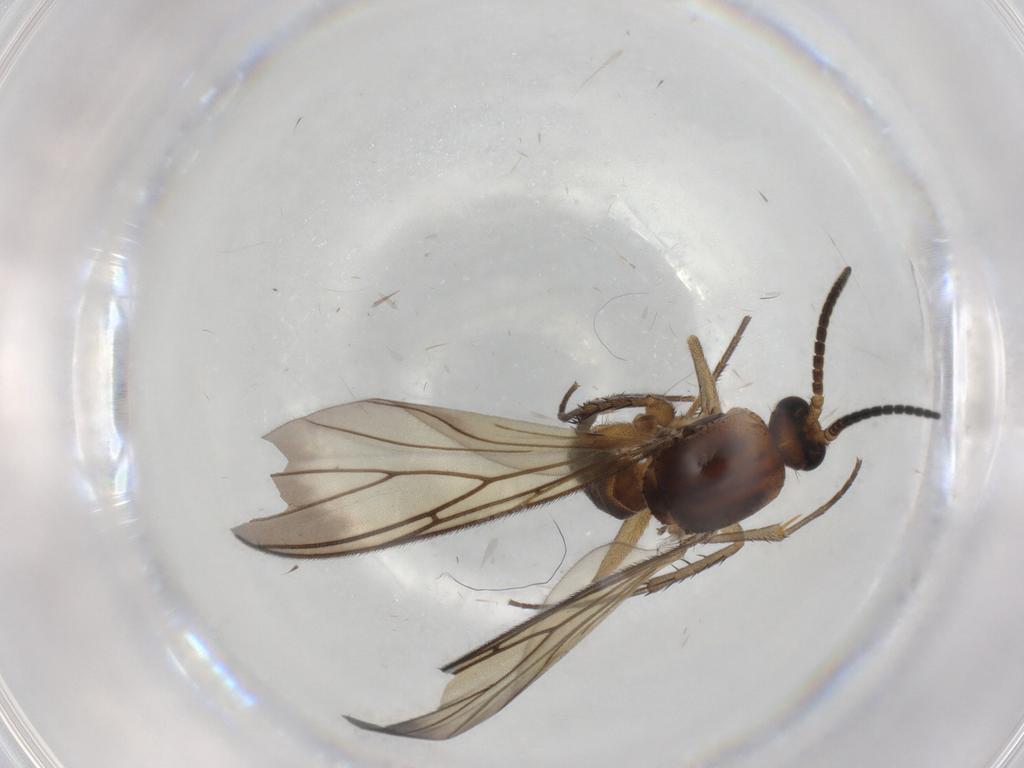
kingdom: Animalia
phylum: Arthropoda
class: Insecta
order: Diptera
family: Mycetophilidae
